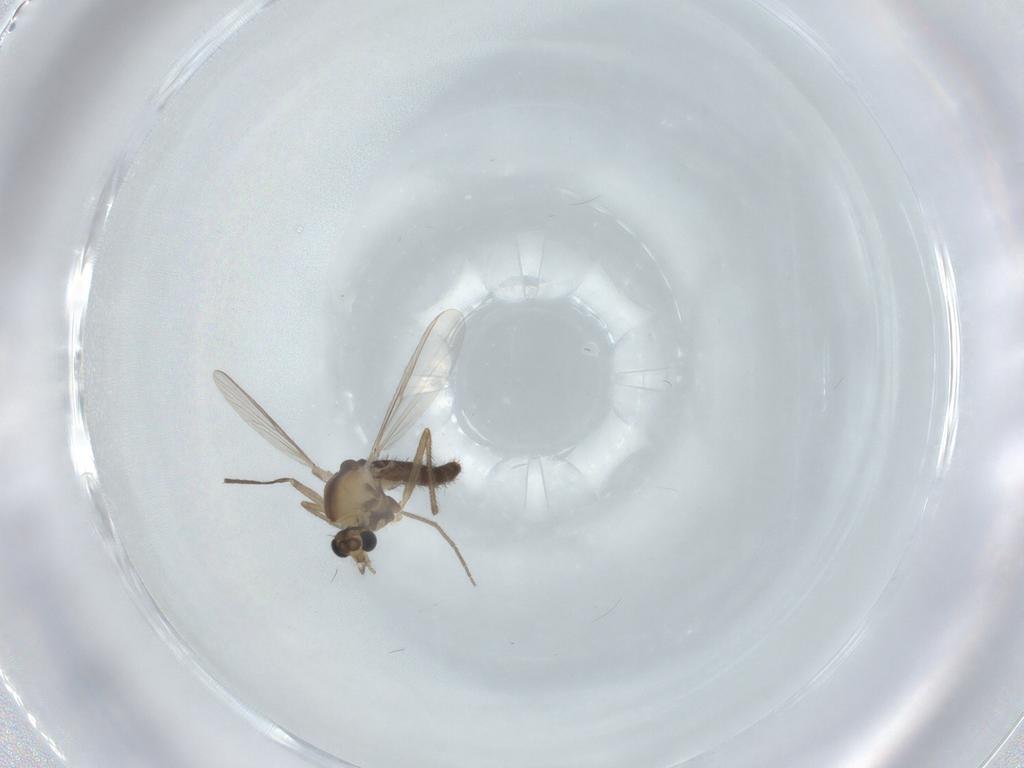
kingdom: Animalia
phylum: Arthropoda
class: Insecta
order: Diptera
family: Chironomidae
